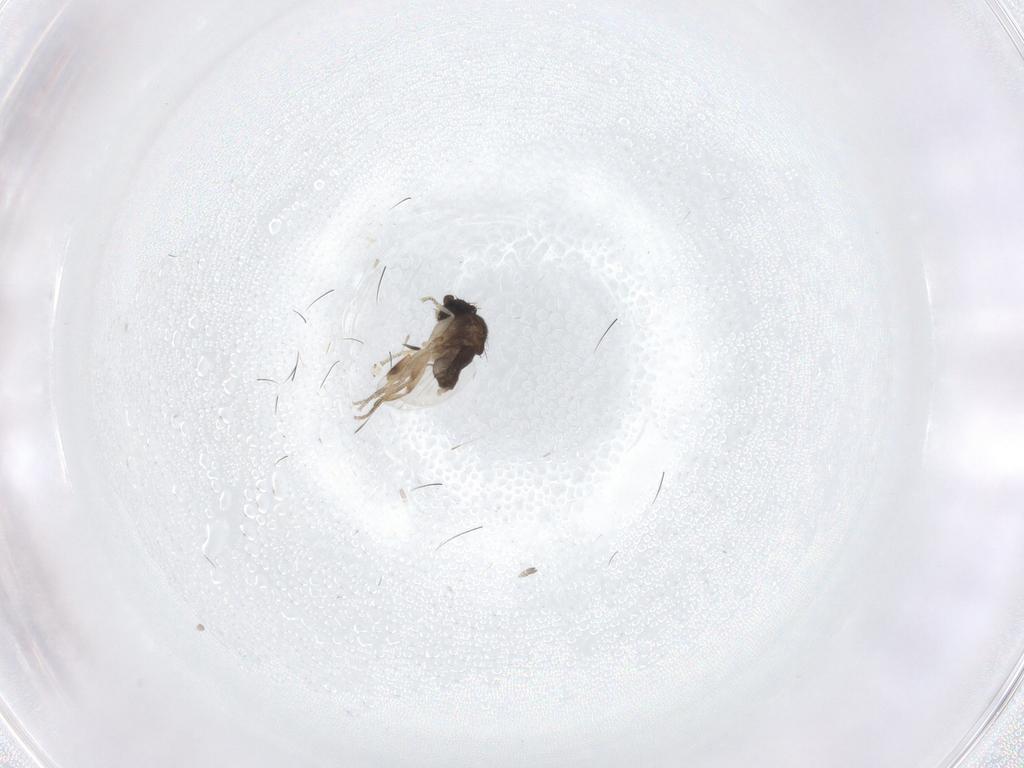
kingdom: Animalia
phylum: Arthropoda
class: Insecta
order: Diptera
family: Phoridae
